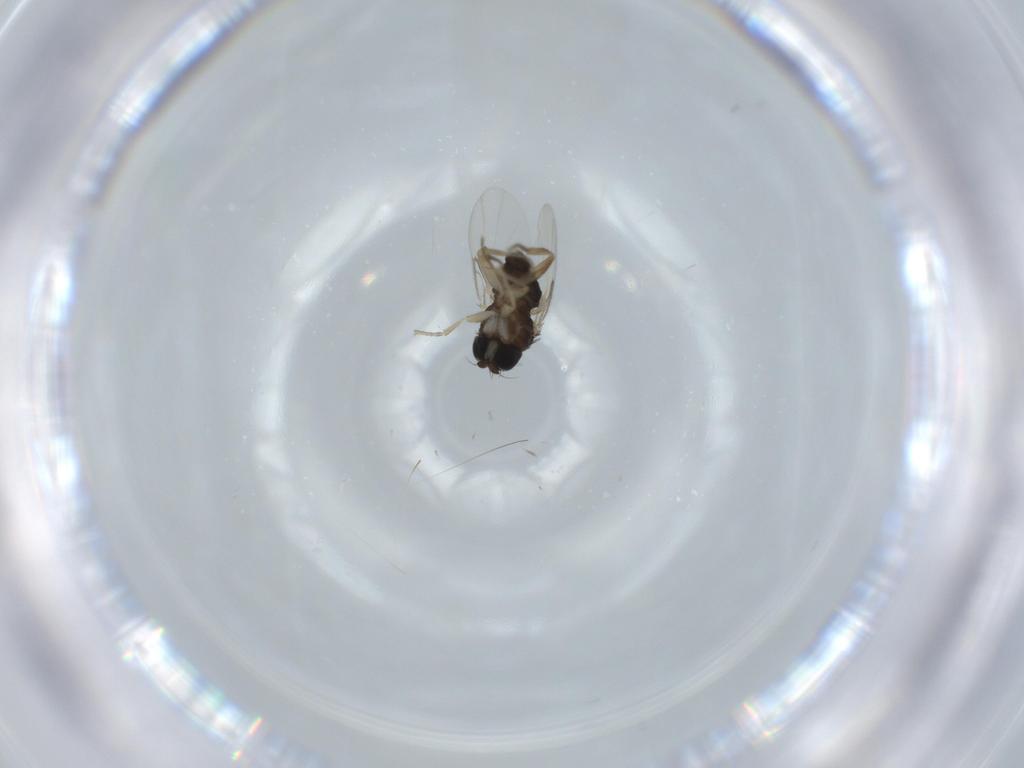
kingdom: Animalia
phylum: Arthropoda
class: Insecta
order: Diptera
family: Phoridae
